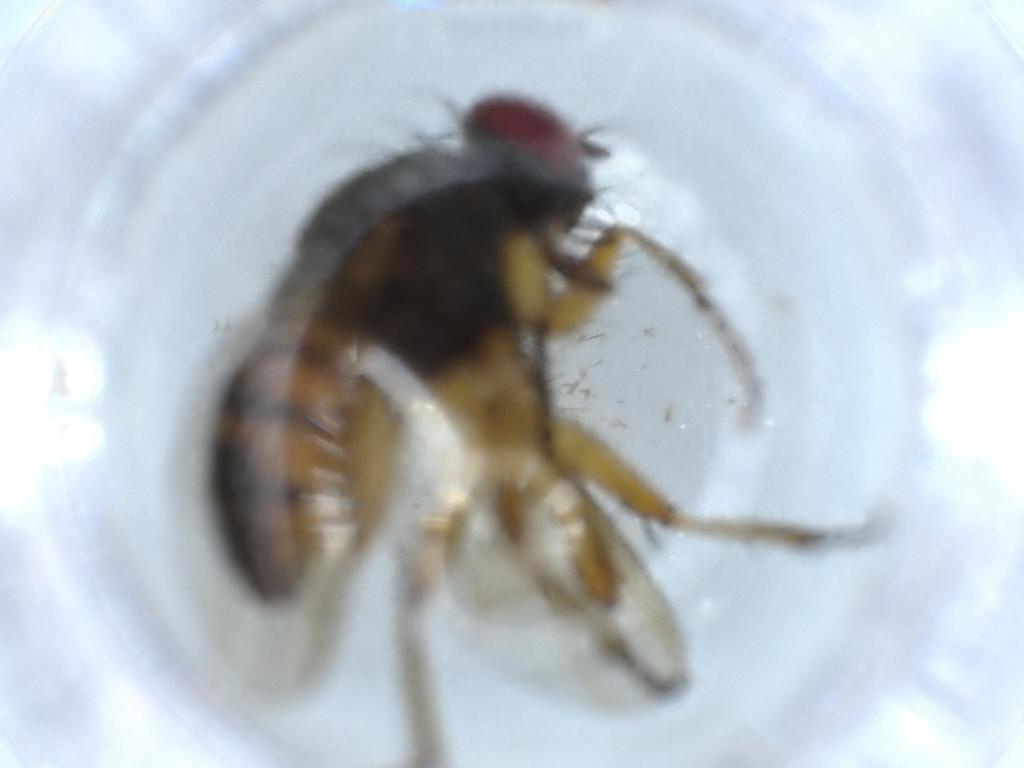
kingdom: Animalia
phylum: Arthropoda
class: Insecta
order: Diptera
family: Muscidae
